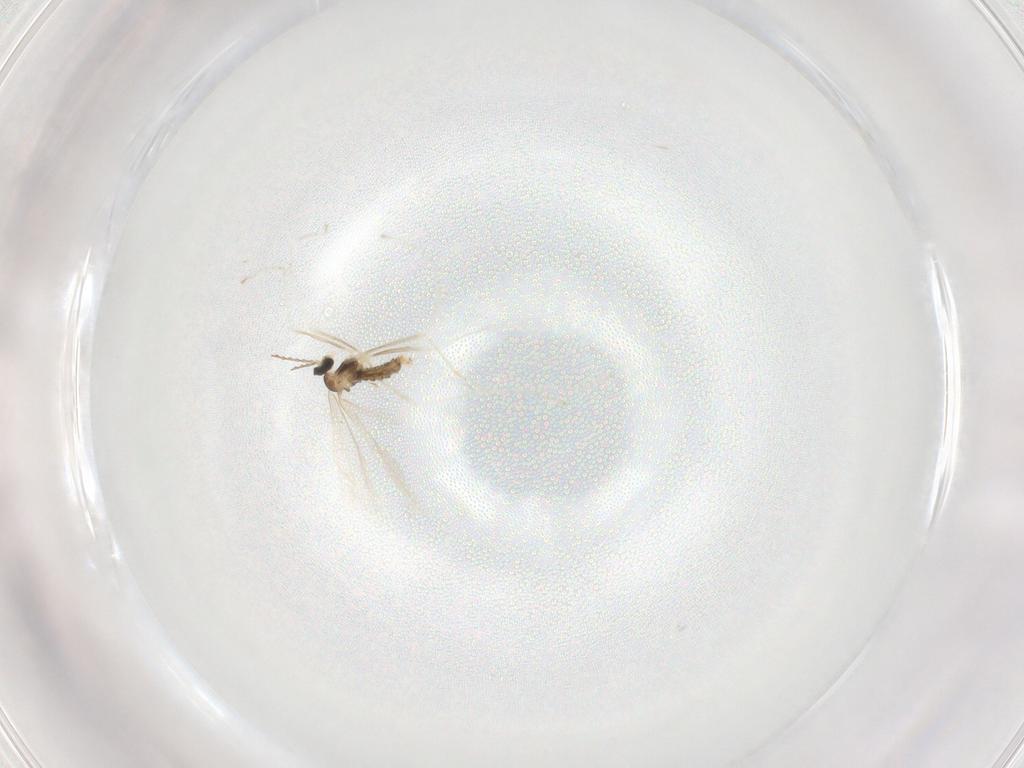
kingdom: Animalia
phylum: Arthropoda
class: Insecta
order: Diptera
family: Cecidomyiidae
